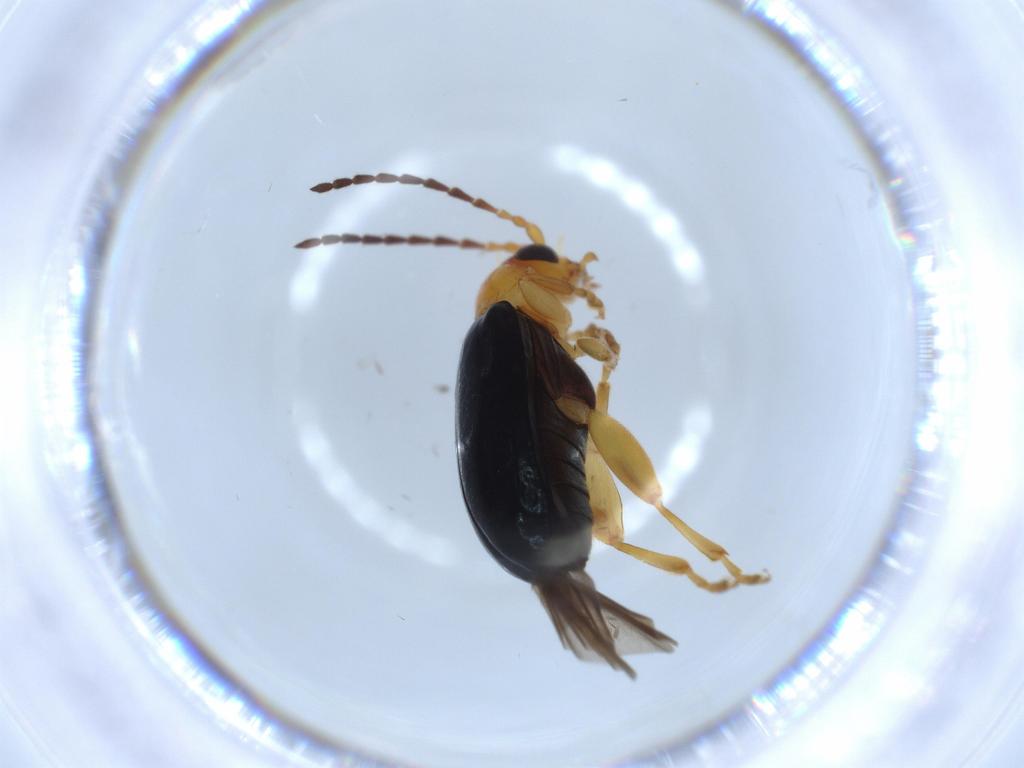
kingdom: Animalia
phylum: Arthropoda
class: Insecta
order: Coleoptera
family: Chrysomelidae
